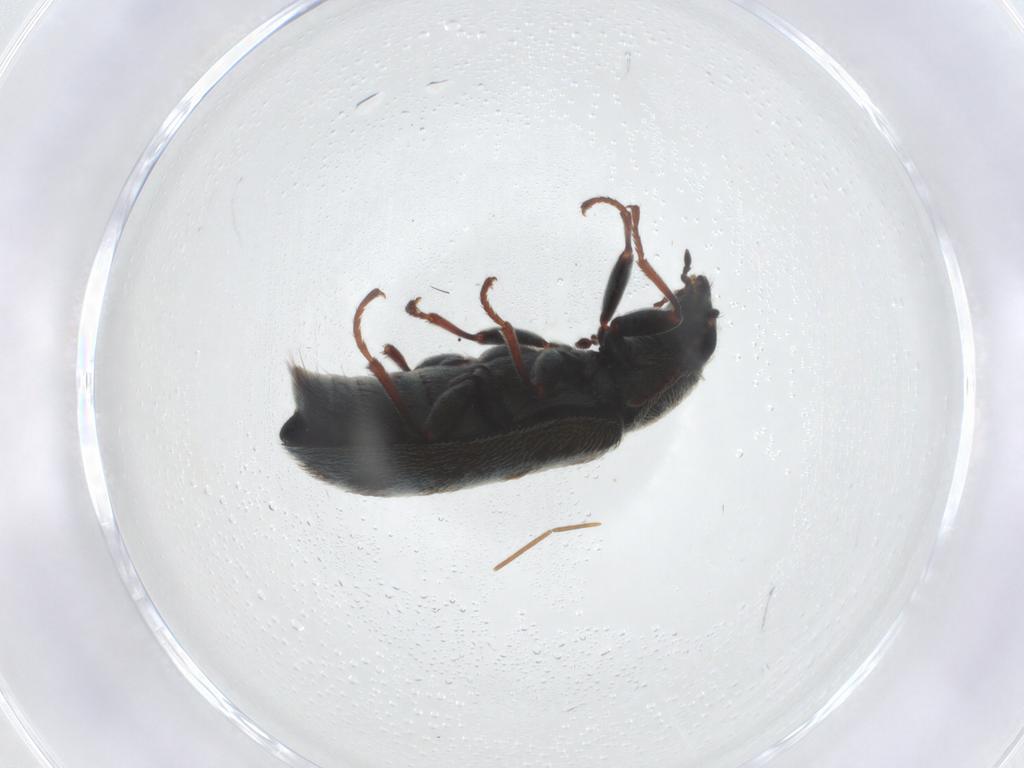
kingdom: Animalia
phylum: Arthropoda
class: Insecta
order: Coleoptera
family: Melyridae
